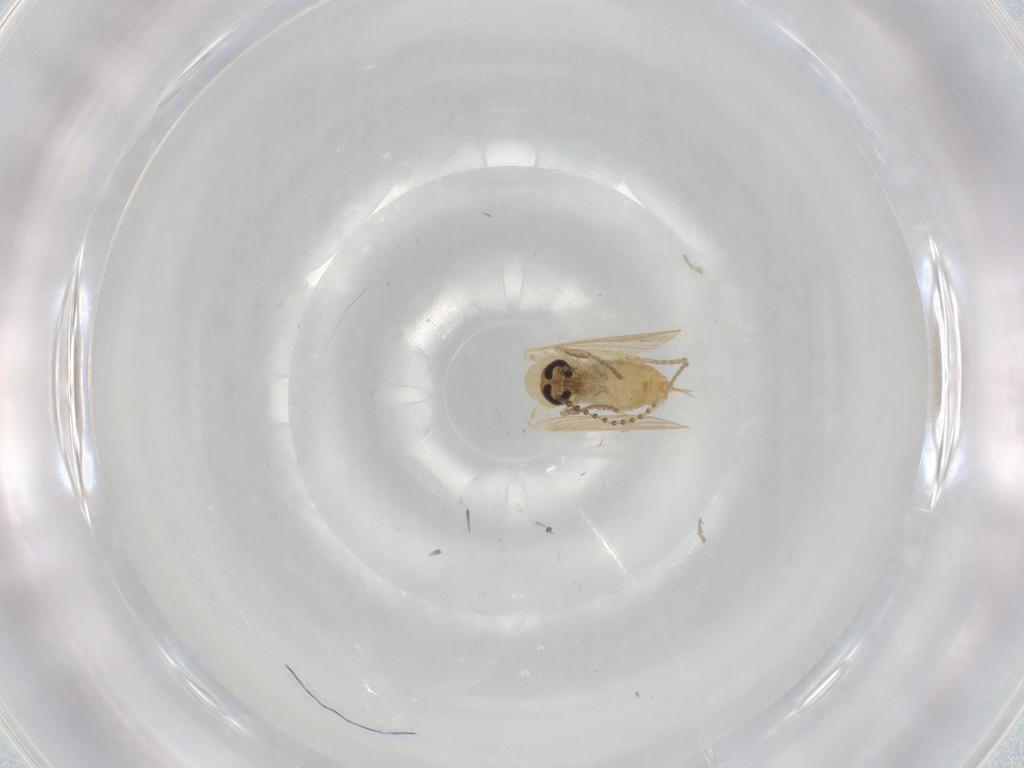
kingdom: Animalia
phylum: Arthropoda
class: Insecta
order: Diptera
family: Psychodidae
